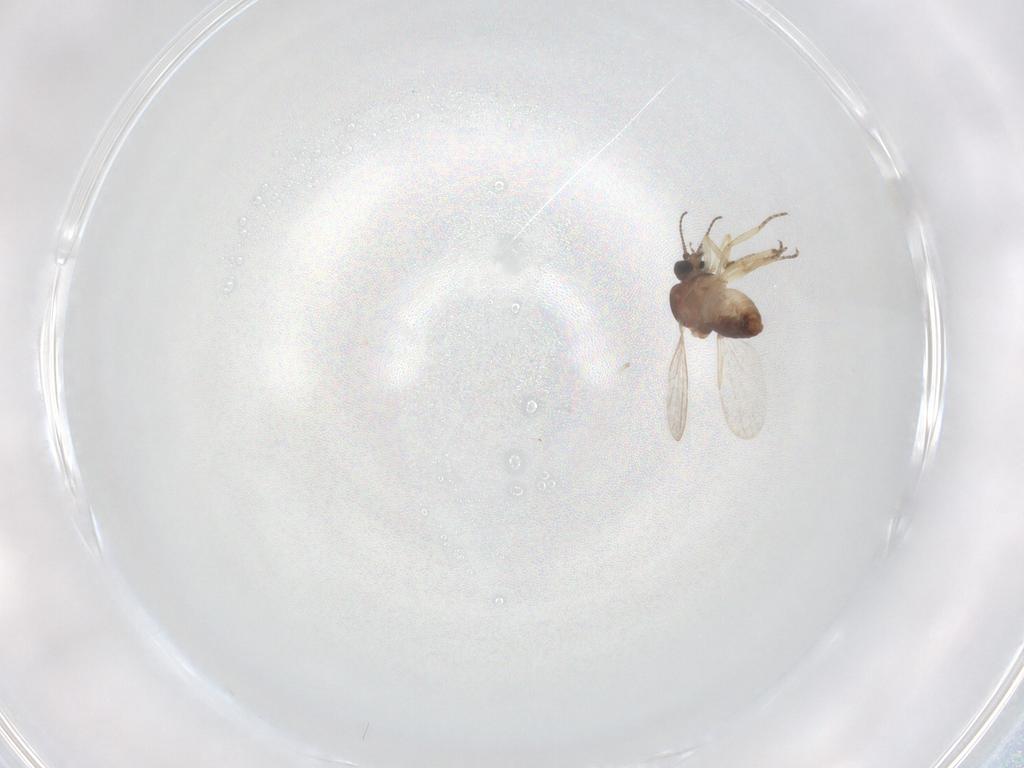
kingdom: Animalia
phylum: Arthropoda
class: Insecta
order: Diptera
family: Ceratopogonidae
